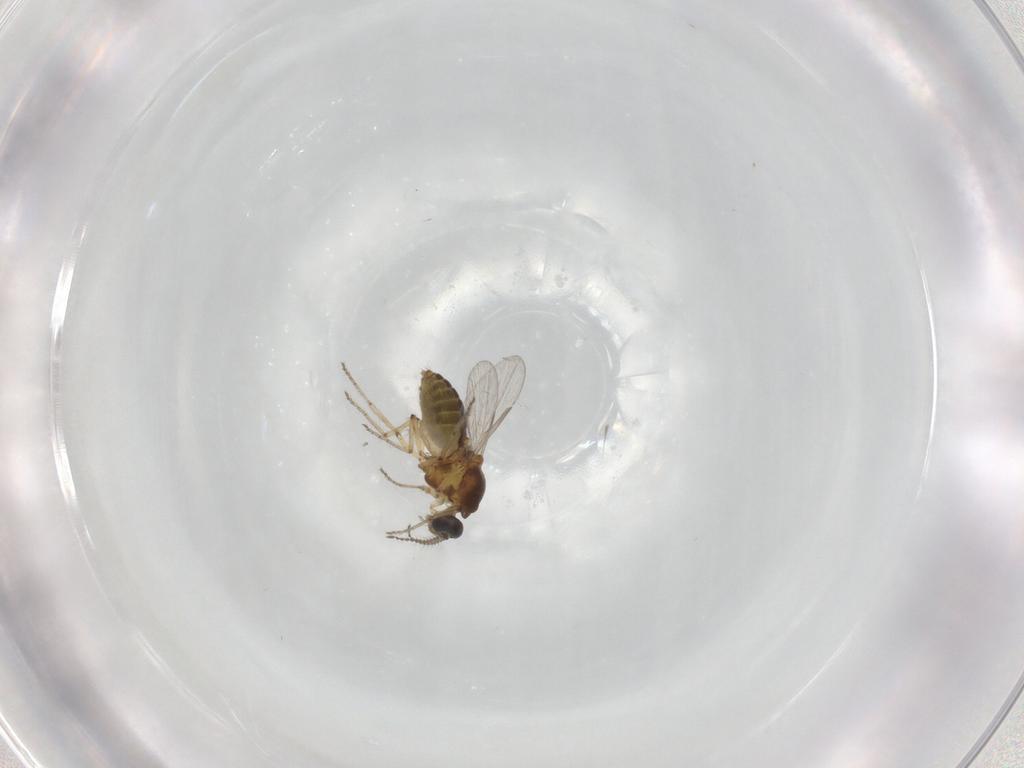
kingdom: Animalia
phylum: Arthropoda
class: Insecta
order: Diptera
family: Ceratopogonidae
